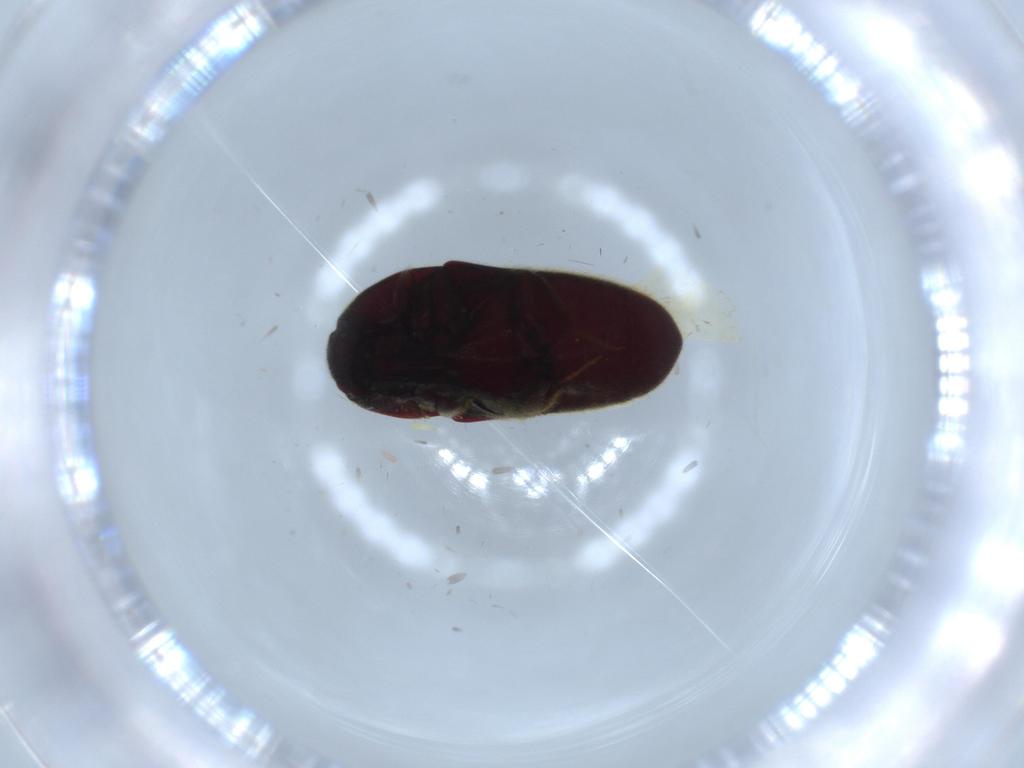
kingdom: Animalia
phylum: Arthropoda
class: Insecta
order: Coleoptera
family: Throscidae
